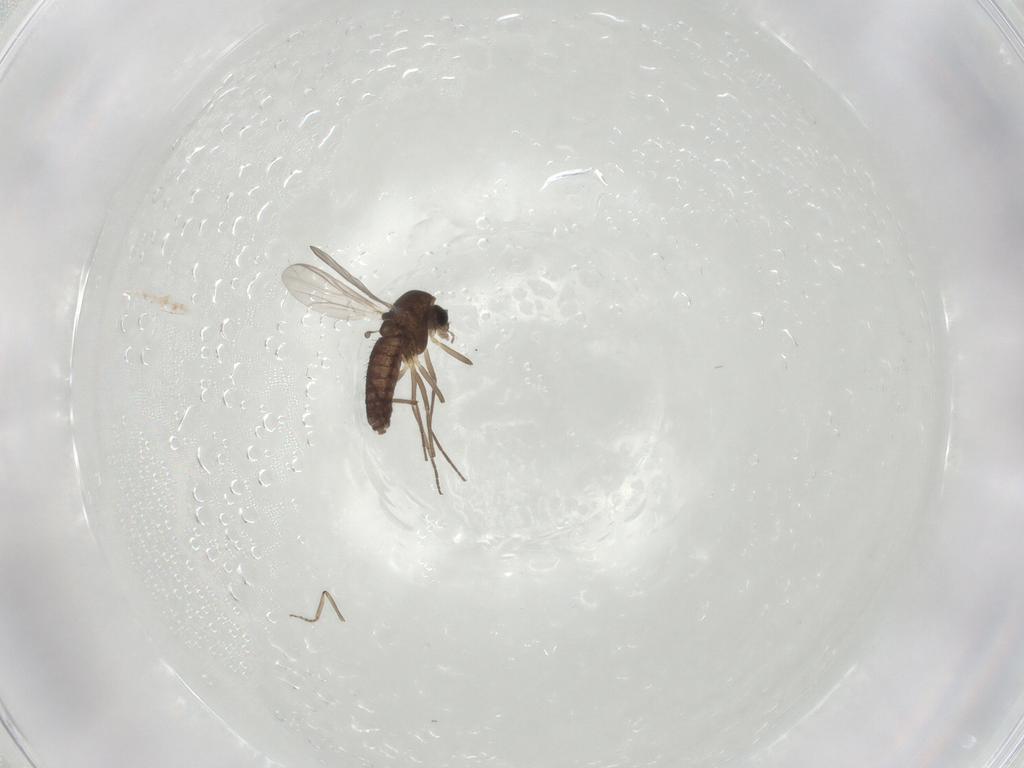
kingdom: Animalia
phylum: Arthropoda
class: Insecta
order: Diptera
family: Chironomidae
